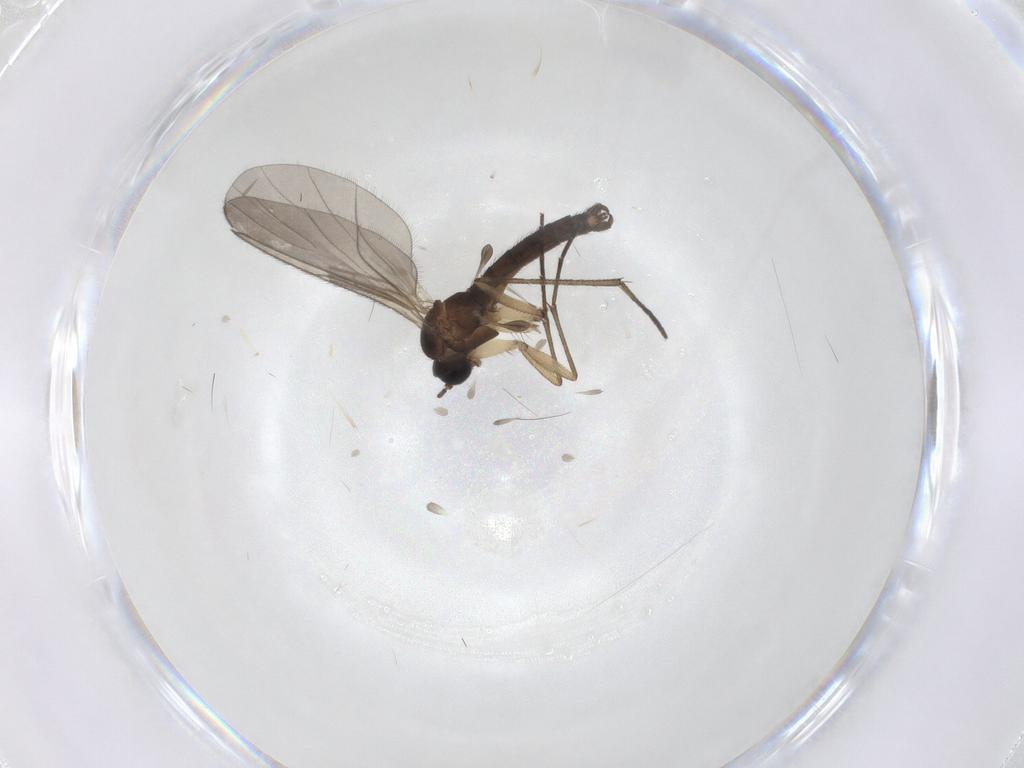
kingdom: Animalia
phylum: Arthropoda
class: Insecta
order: Diptera
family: Sciaridae
